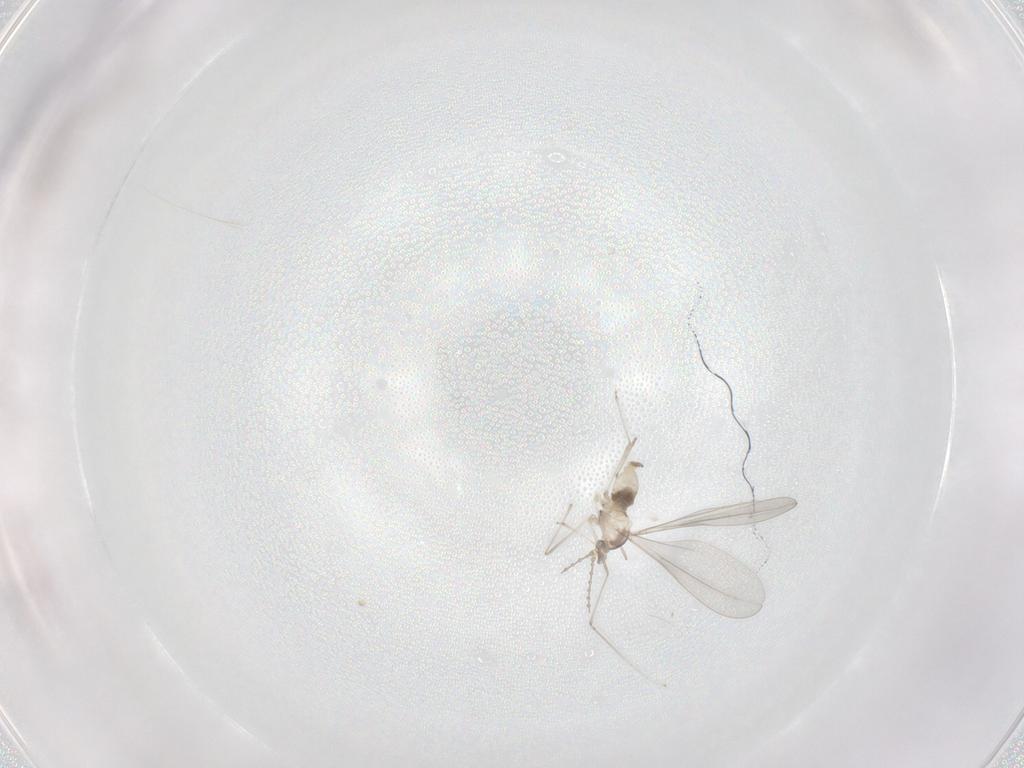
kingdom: Animalia
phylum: Arthropoda
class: Insecta
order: Diptera
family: Cecidomyiidae
